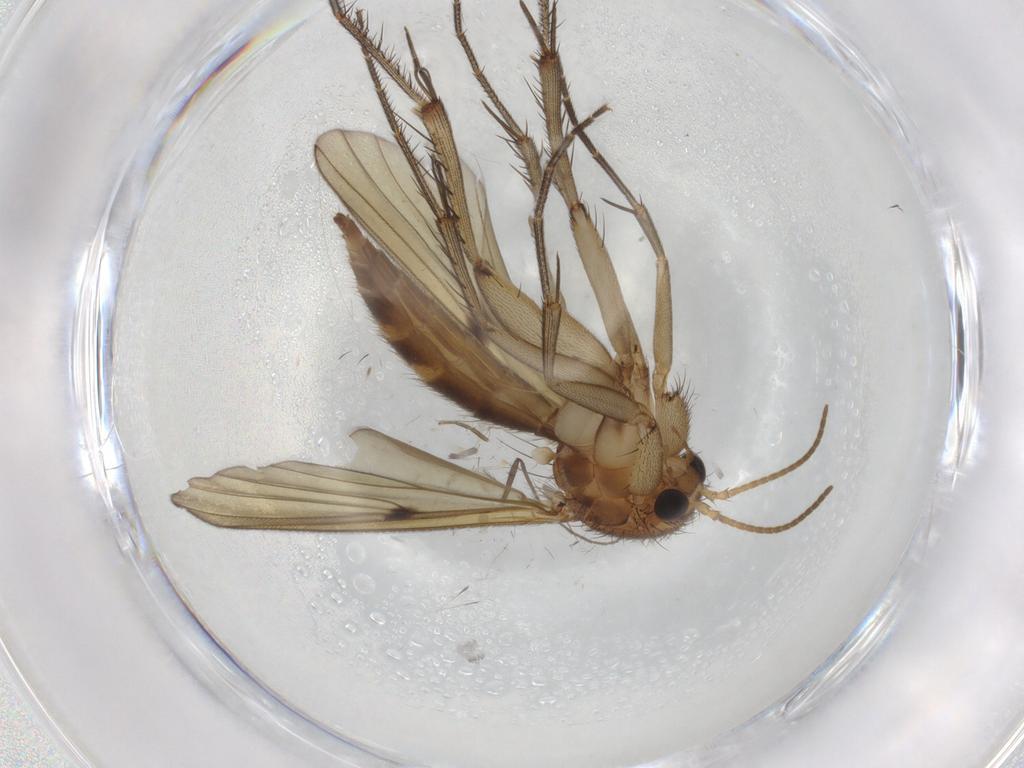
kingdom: Animalia
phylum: Arthropoda
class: Insecta
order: Diptera
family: Mycetophilidae
